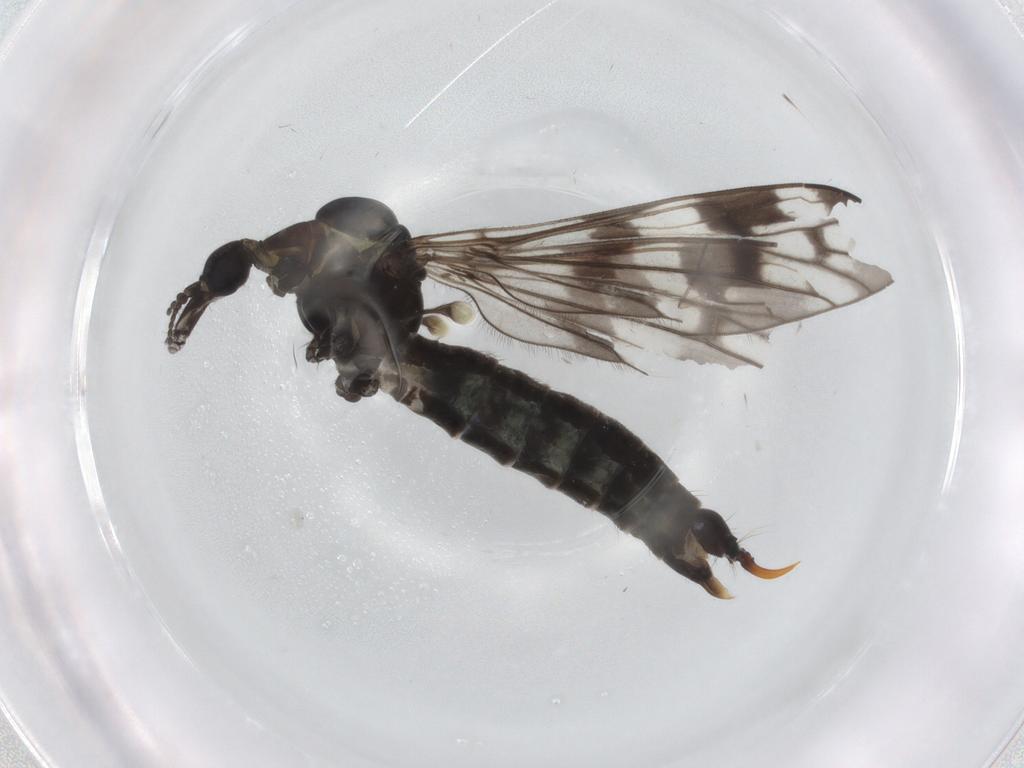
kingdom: Animalia
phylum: Arthropoda
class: Insecta
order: Diptera
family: Limoniidae
